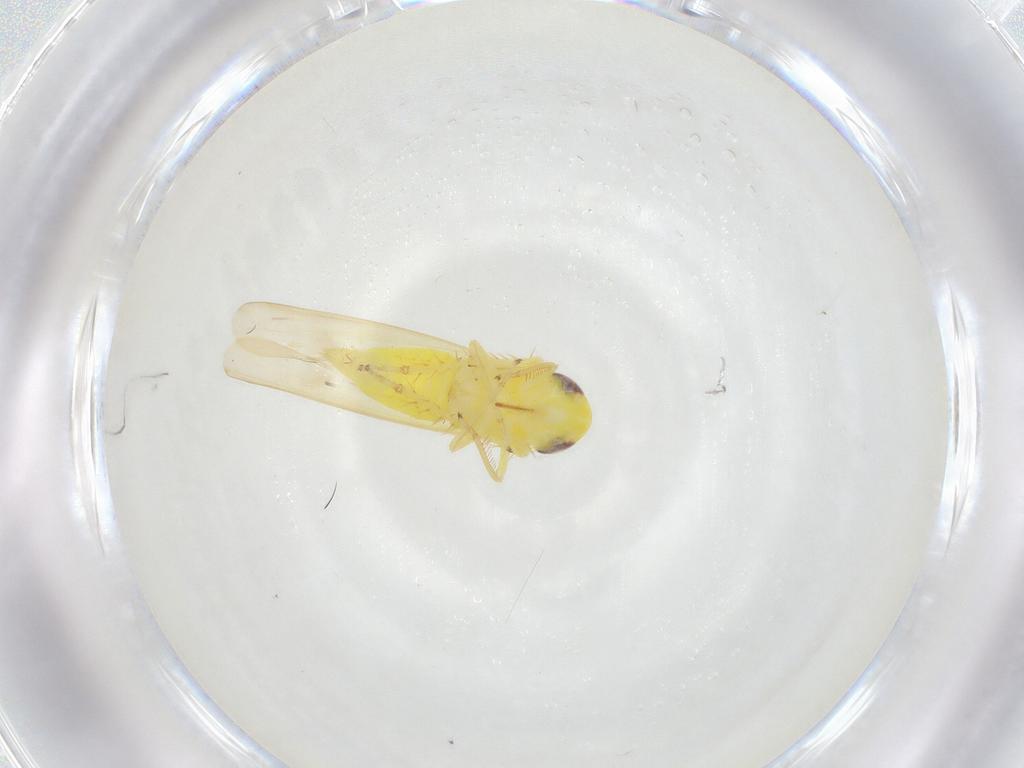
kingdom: Animalia
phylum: Arthropoda
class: Insecta
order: Hemiptera
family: Cicadellidae
